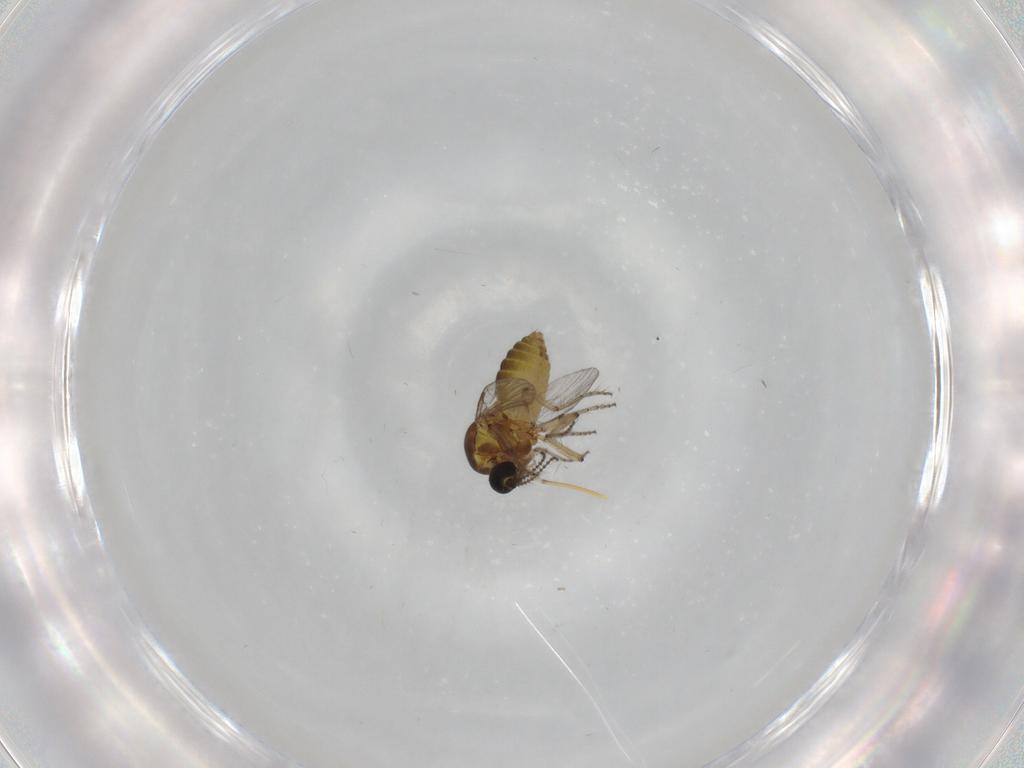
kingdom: Animalia
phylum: Arthropoda
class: Insecta
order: Diptera
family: Ceratopogonidae
